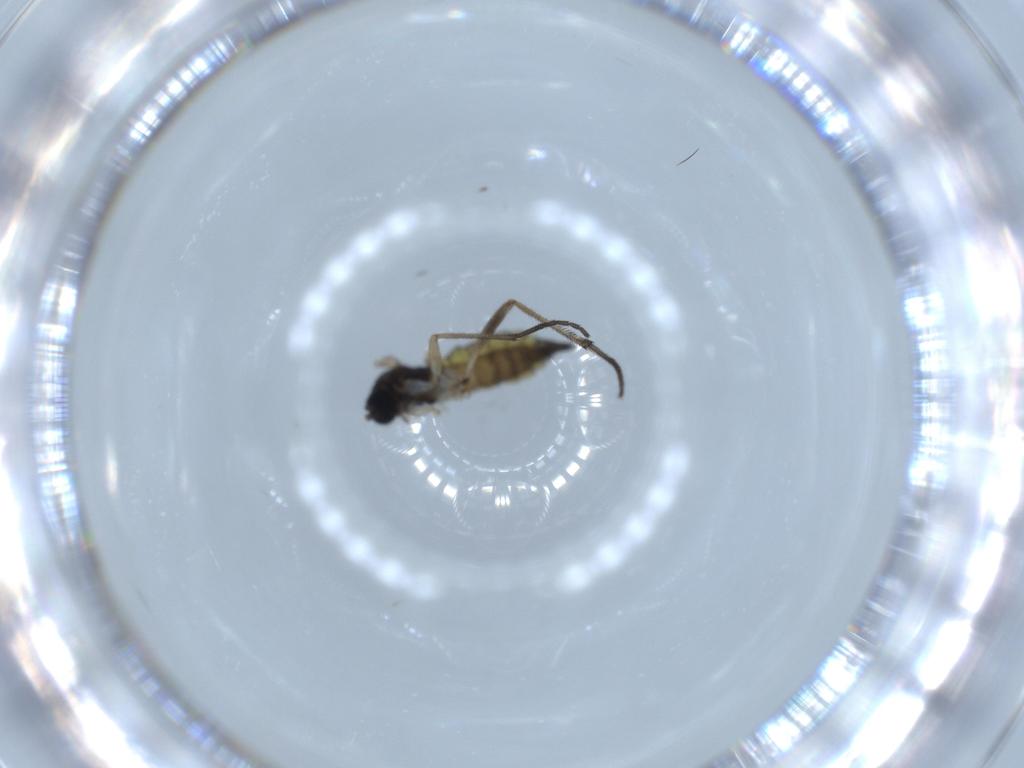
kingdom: Animalia
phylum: Arthropoda
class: Insecta
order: Diptera
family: Sciaridae
